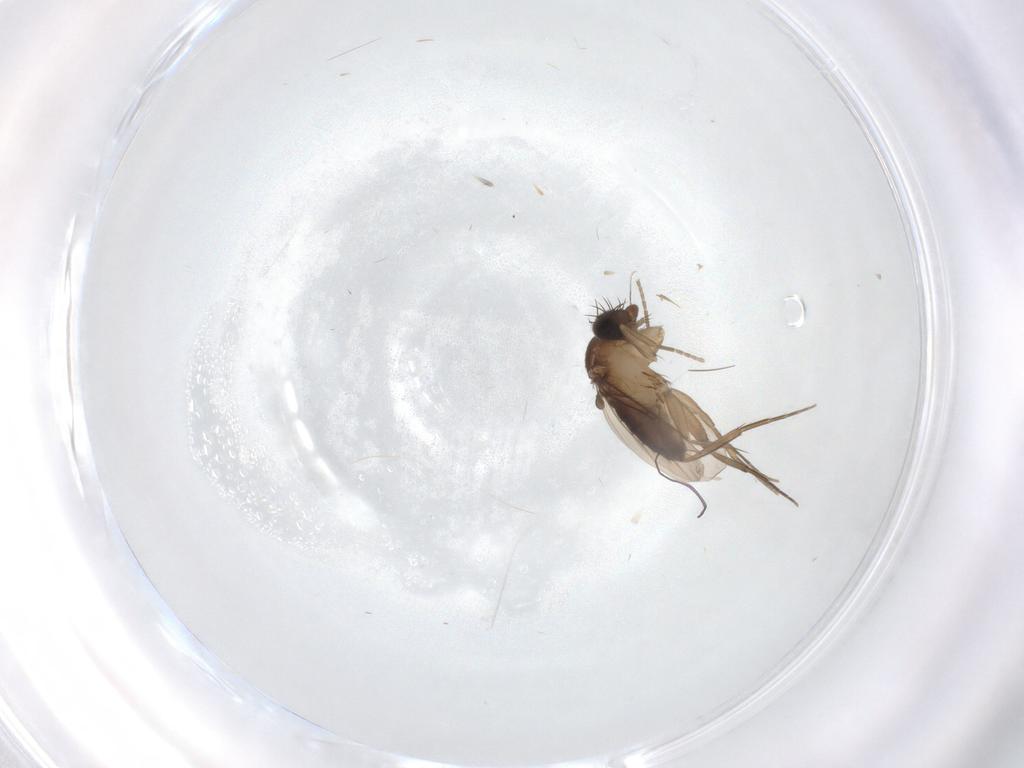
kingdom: Animalia
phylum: Arthropoda
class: Insecta
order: Diptera
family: Phoridae
